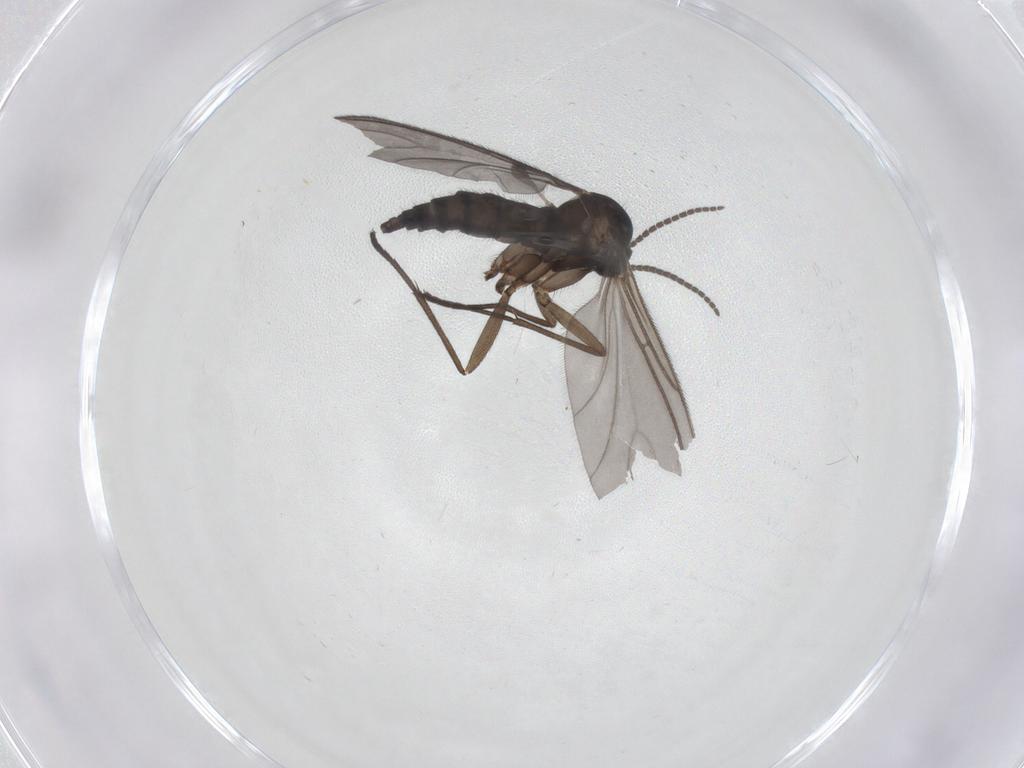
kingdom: Animalia
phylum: Arthropoda
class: Insecta
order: Diptera
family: Sciaridae
